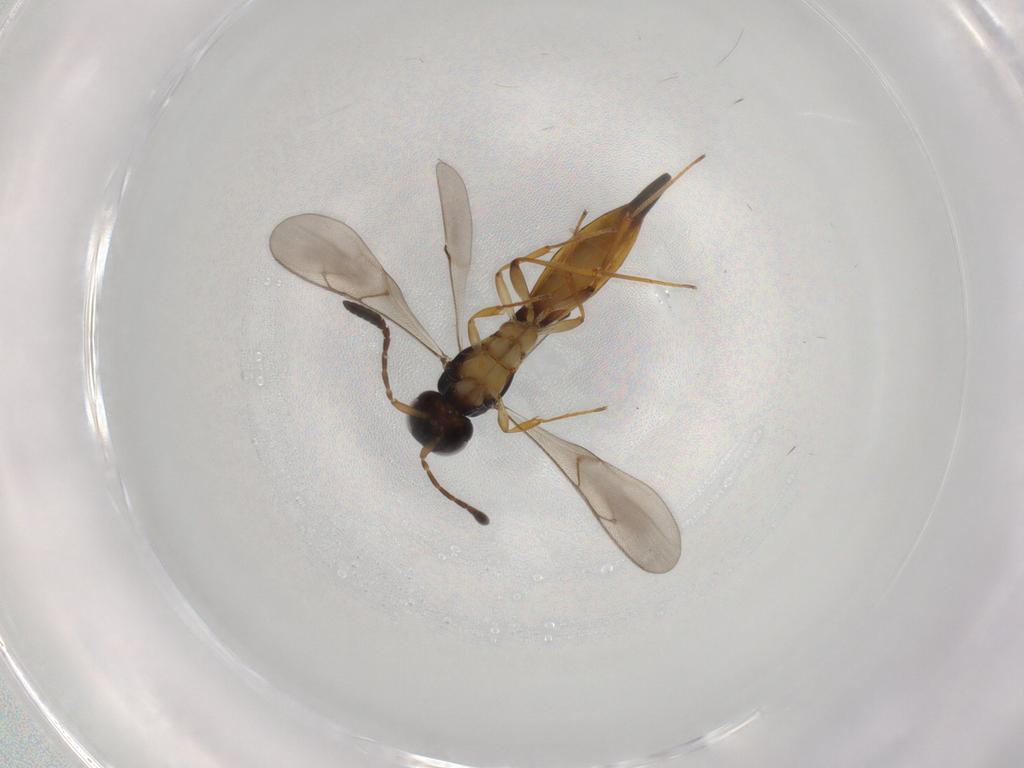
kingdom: Animalia
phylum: Arthropoda
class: Insecta
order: Hymenoptera
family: Scelionidae
